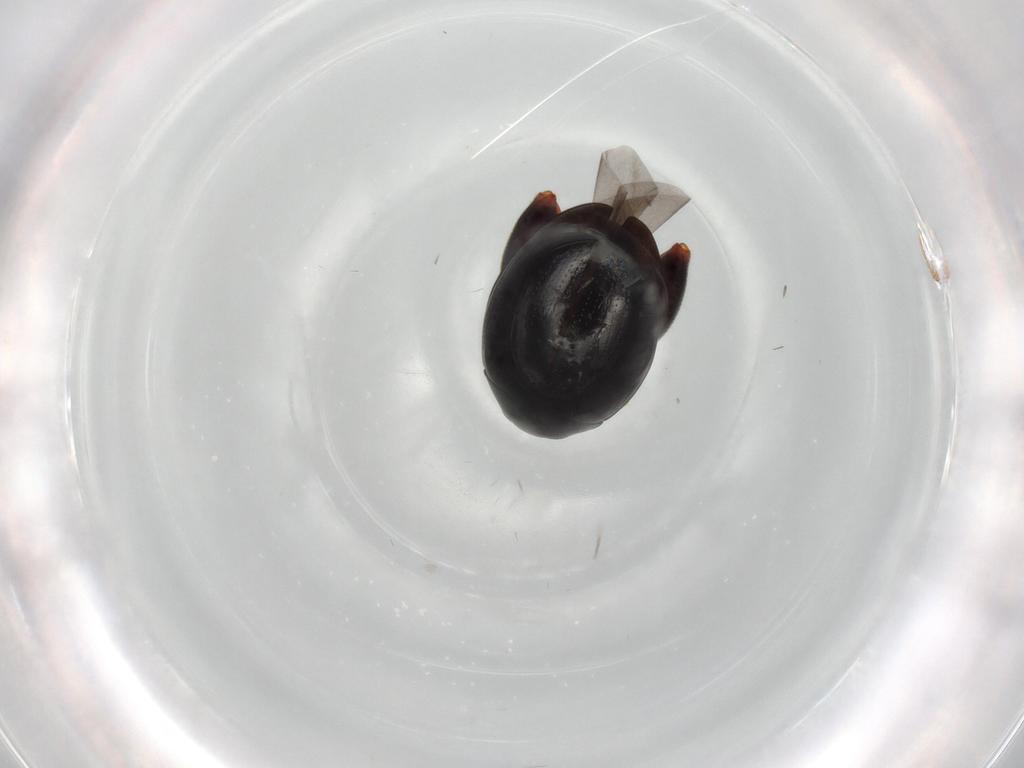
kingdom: Animalia
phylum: Arthropoda
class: Insecta
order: Coleoptera
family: Chrysomelidae
